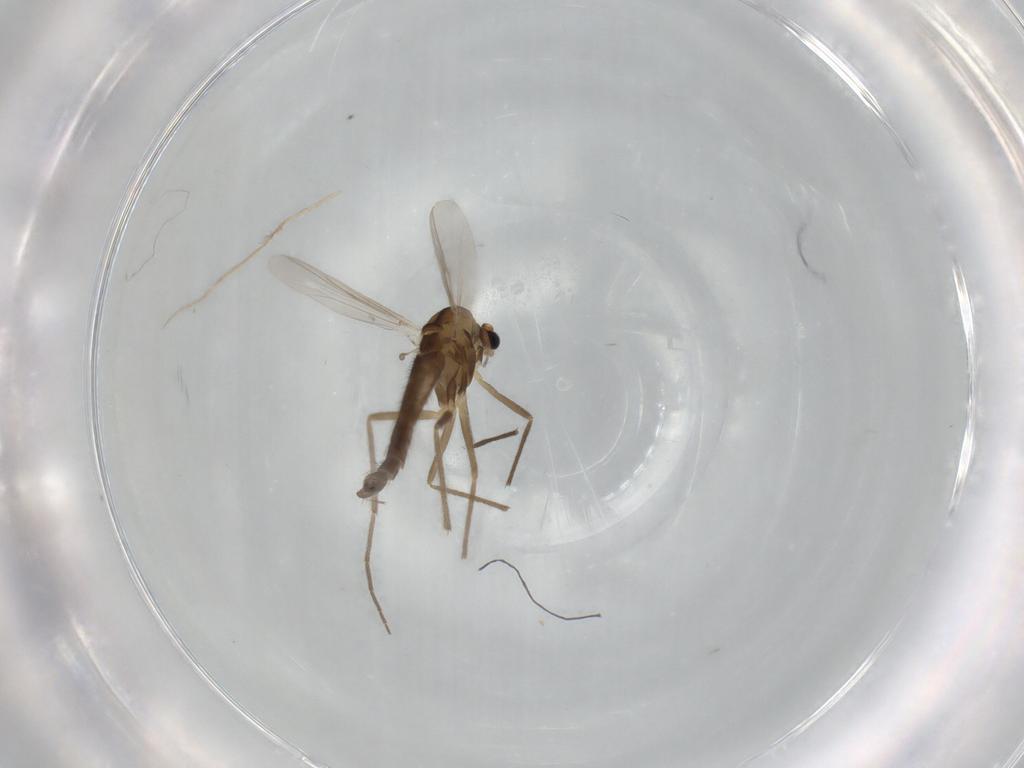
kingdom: Animalia
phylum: Arthropoda
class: Insecta
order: Diptera
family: Chironomidae
